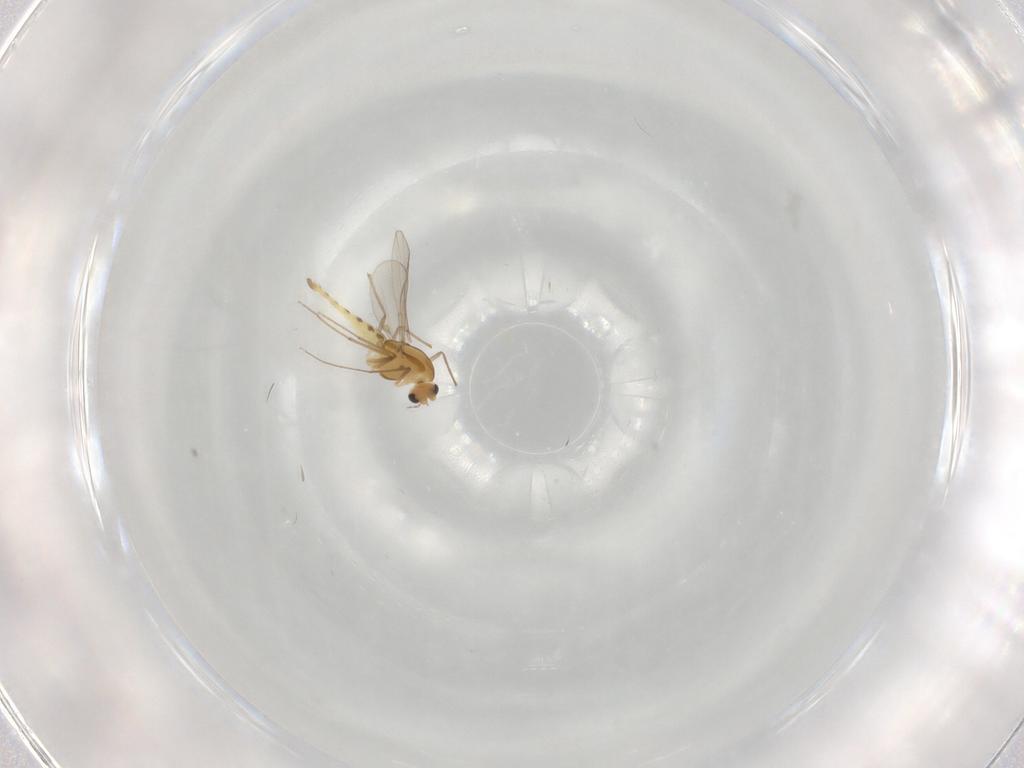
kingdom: Animalia
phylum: Arthropoda
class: Insecta
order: Diptera
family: Chironomidae
